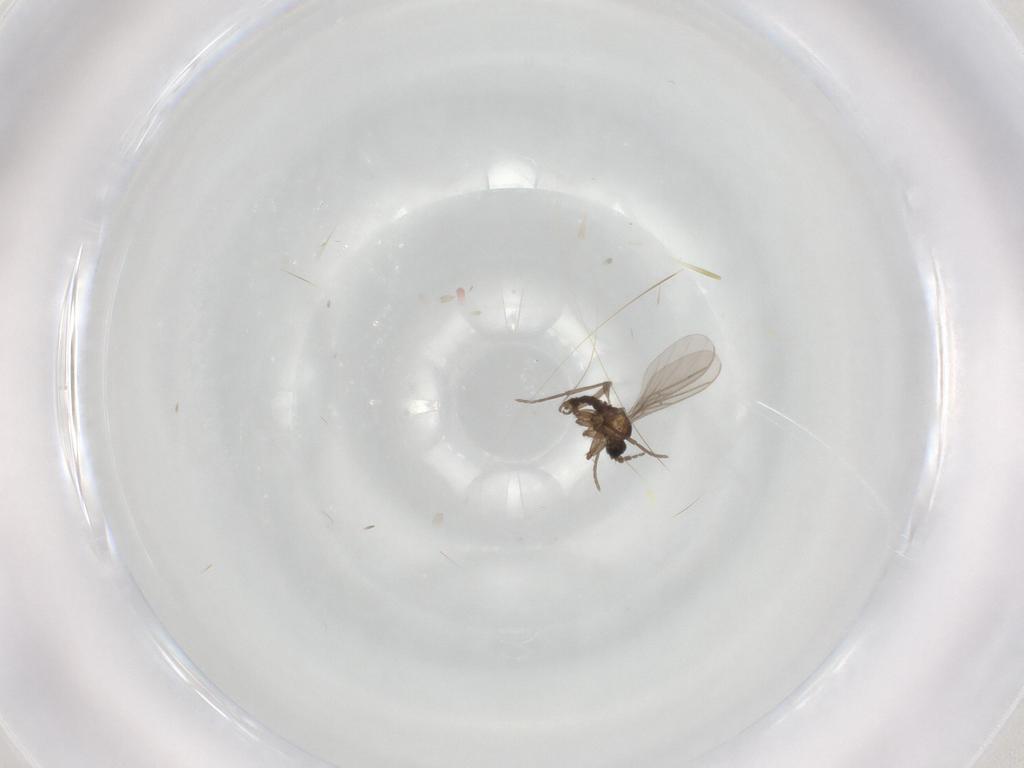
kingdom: Animalia
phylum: Arthropoda
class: Insecta
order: Diptera
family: Sciaridae
